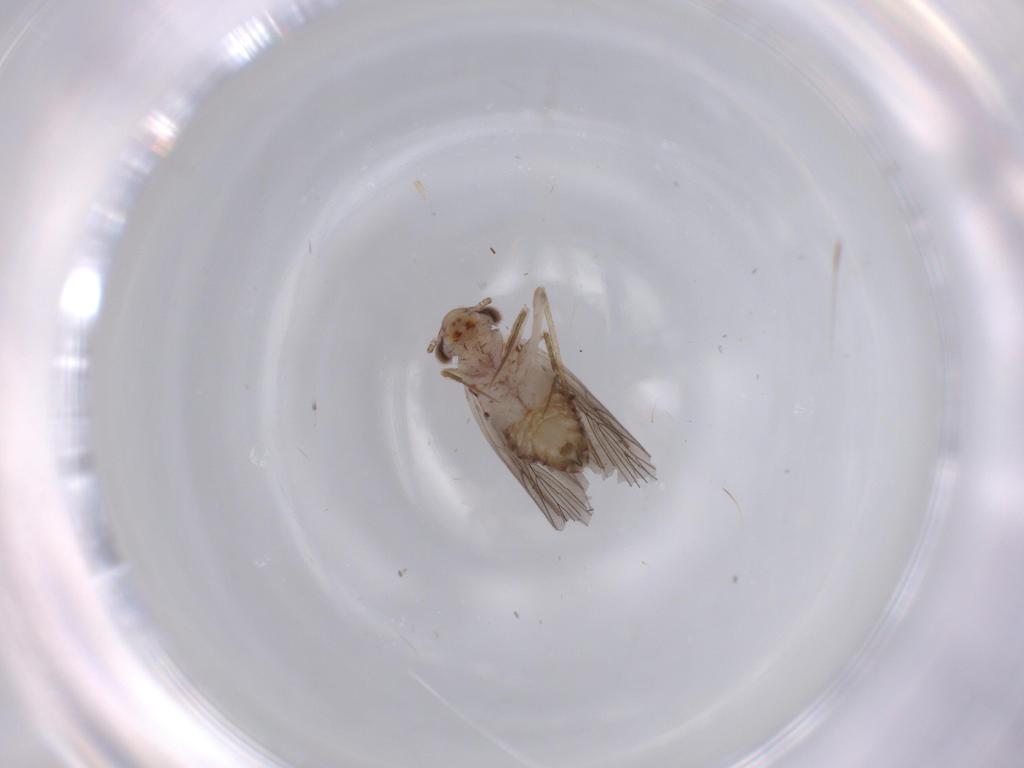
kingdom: Animalia
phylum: Arthropoda
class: Insecta
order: Psocodea
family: Lepidopsocidae
